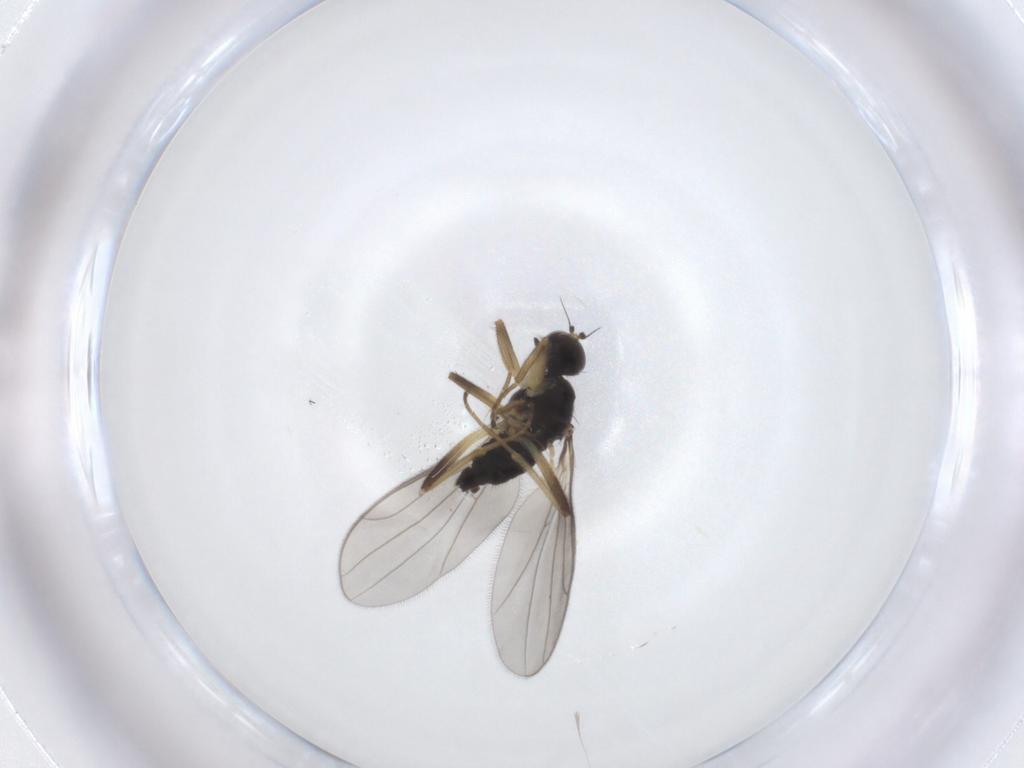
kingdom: Animalia
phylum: Arthropoda
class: Insecta
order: Diptera
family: Hybotidae
